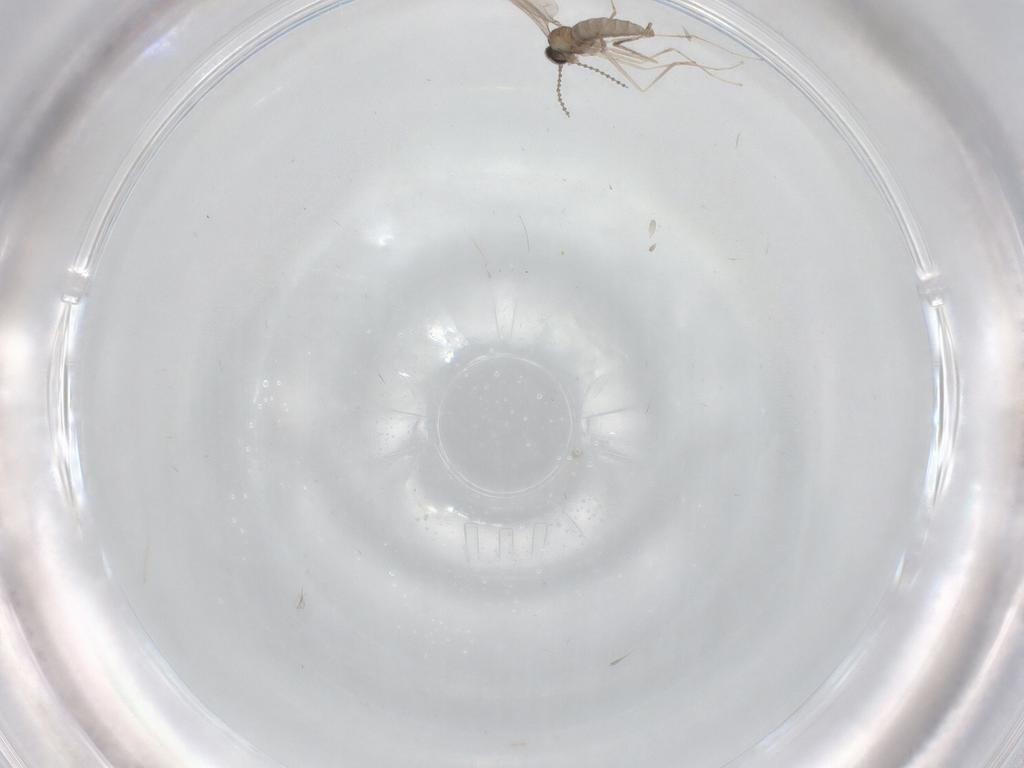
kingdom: Animalia
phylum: Arthropoda
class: Insecta
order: Diptera
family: Cecidomyiidae
